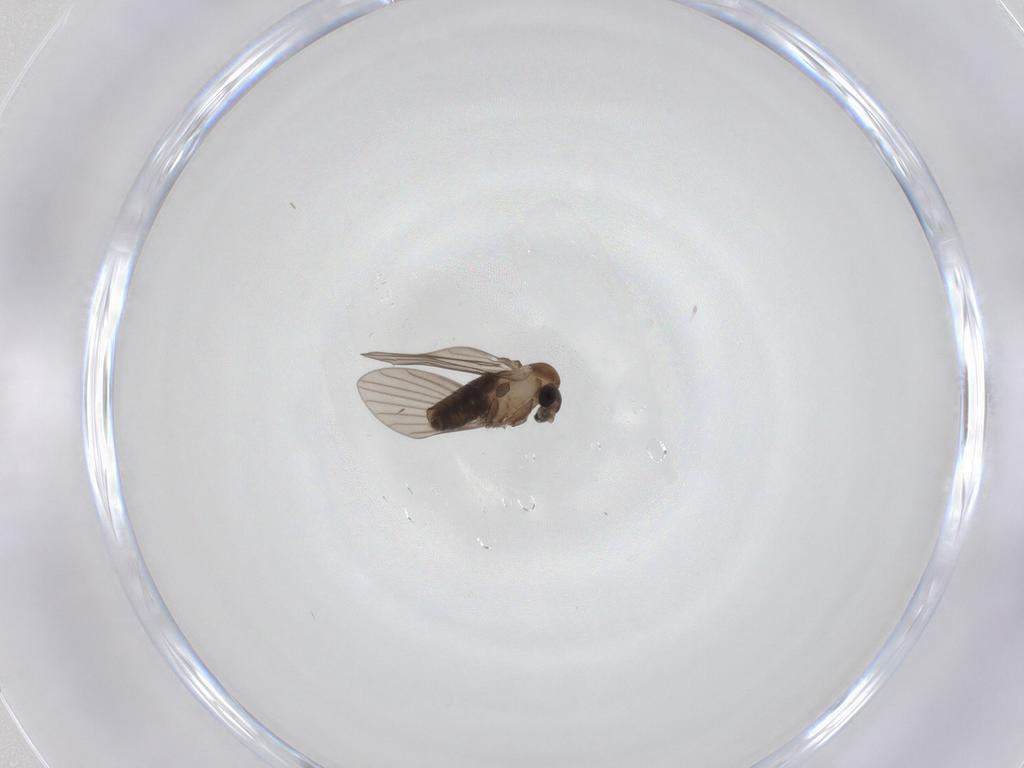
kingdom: Animalia
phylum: Arthropoda
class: Insecta
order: Diptera
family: Psychodidae
